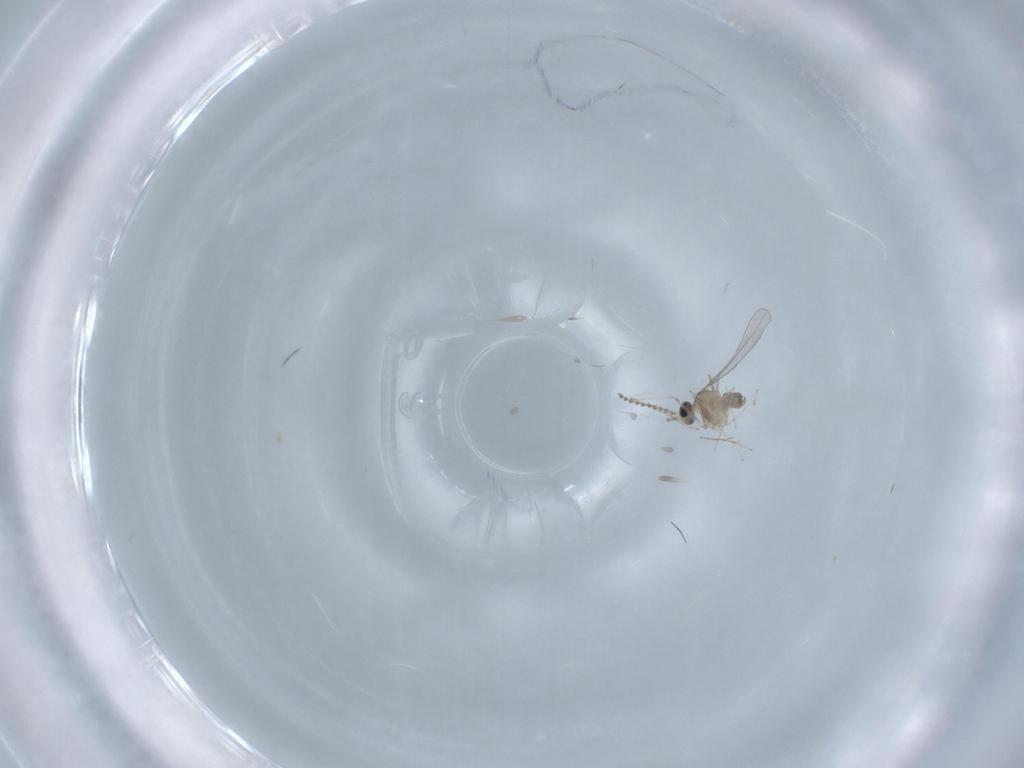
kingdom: Animalia
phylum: Arthropoda
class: Insecta
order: Diptera
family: Cecidomyiidae
